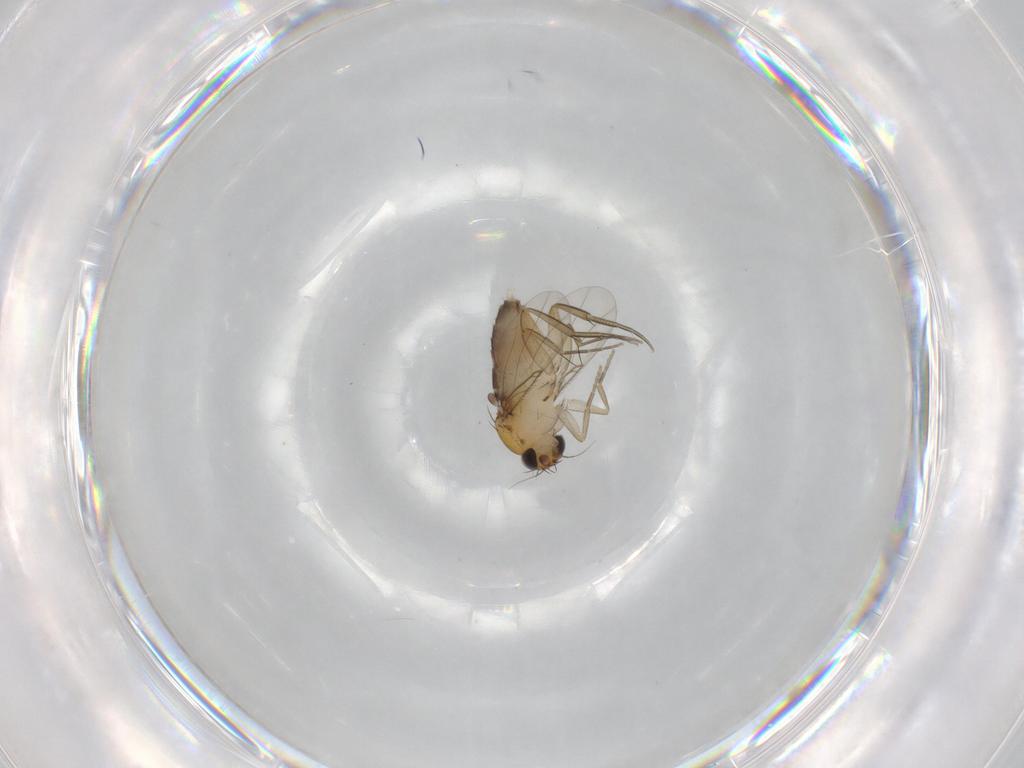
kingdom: Animalia
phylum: Arthropoda
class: Insecta
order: Diptera
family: Phoridae
